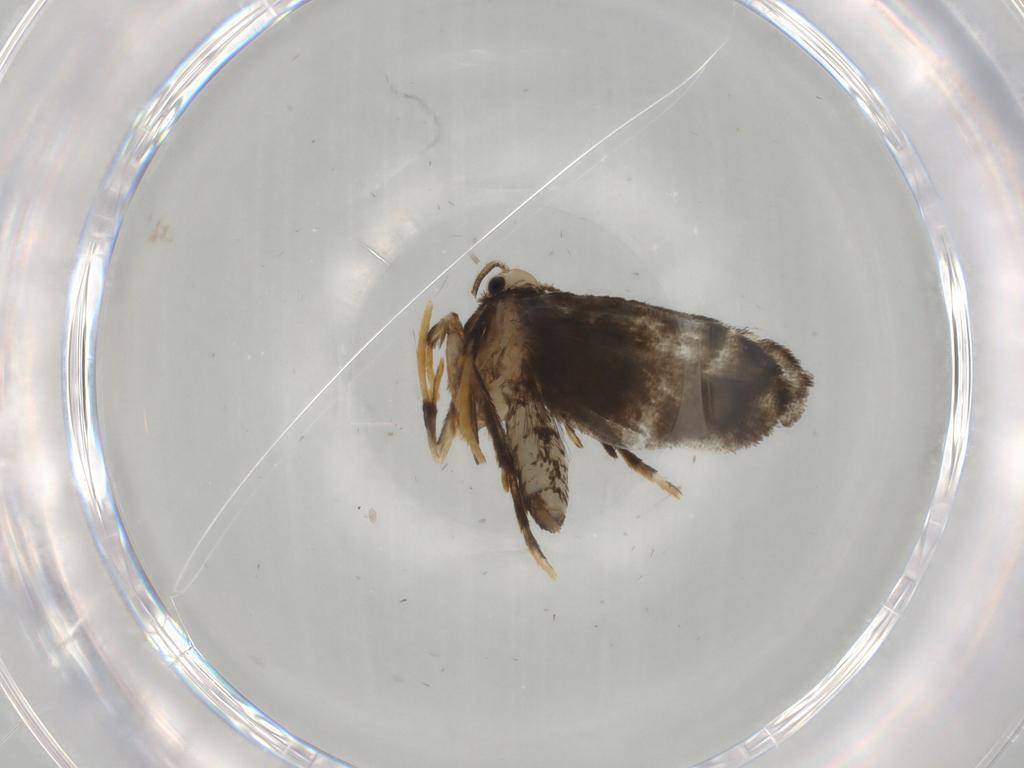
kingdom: Animalia
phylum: Arthropoda
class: Insecta
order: Lepidoptera
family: Psychidae
